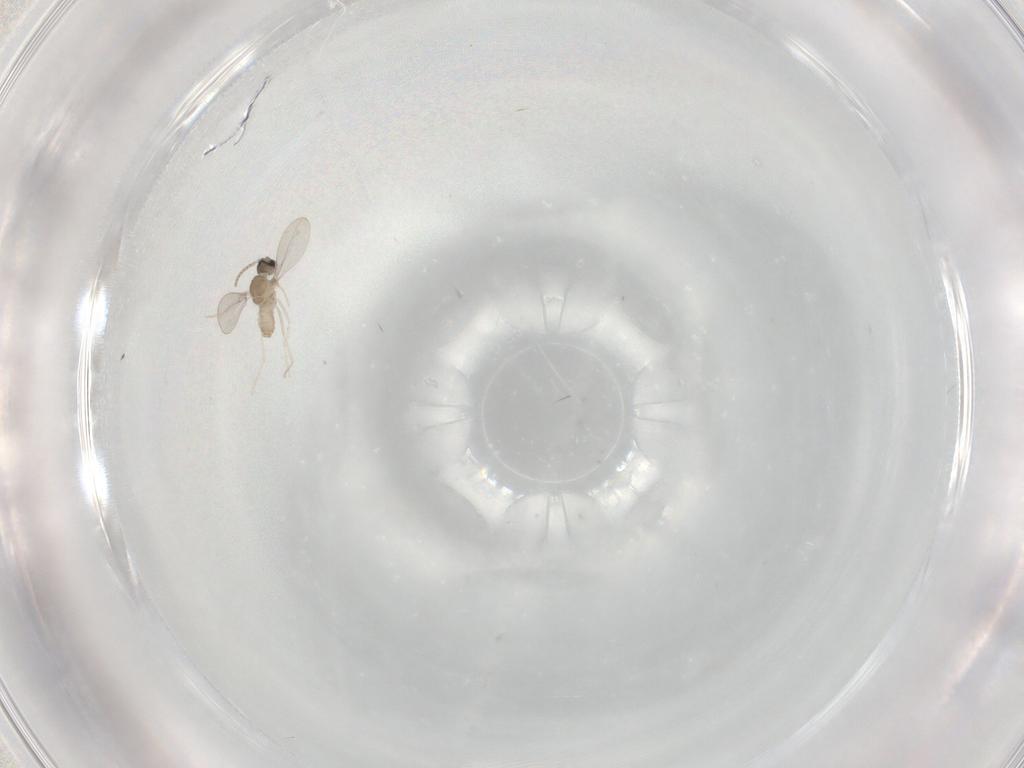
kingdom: Animalia
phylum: Arthropoda
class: Insecta
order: Diptera
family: Cecidomyiidae
